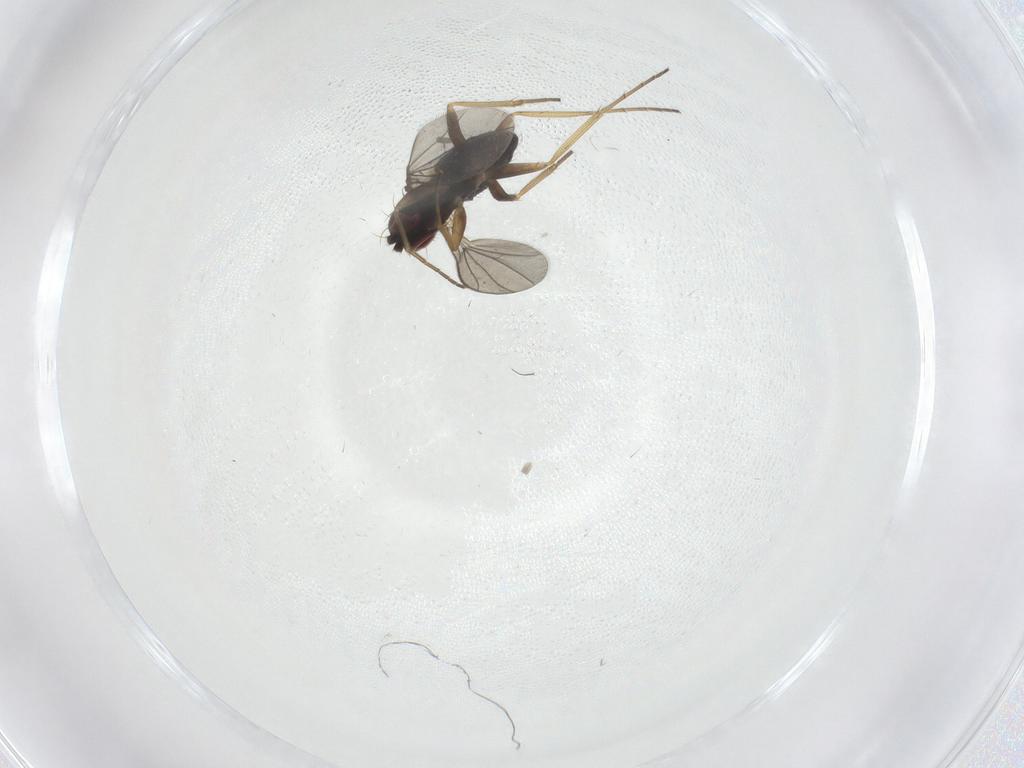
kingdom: Animalia
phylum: Arthropoda
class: Insecta
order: Diptera
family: Dolichopodidae
